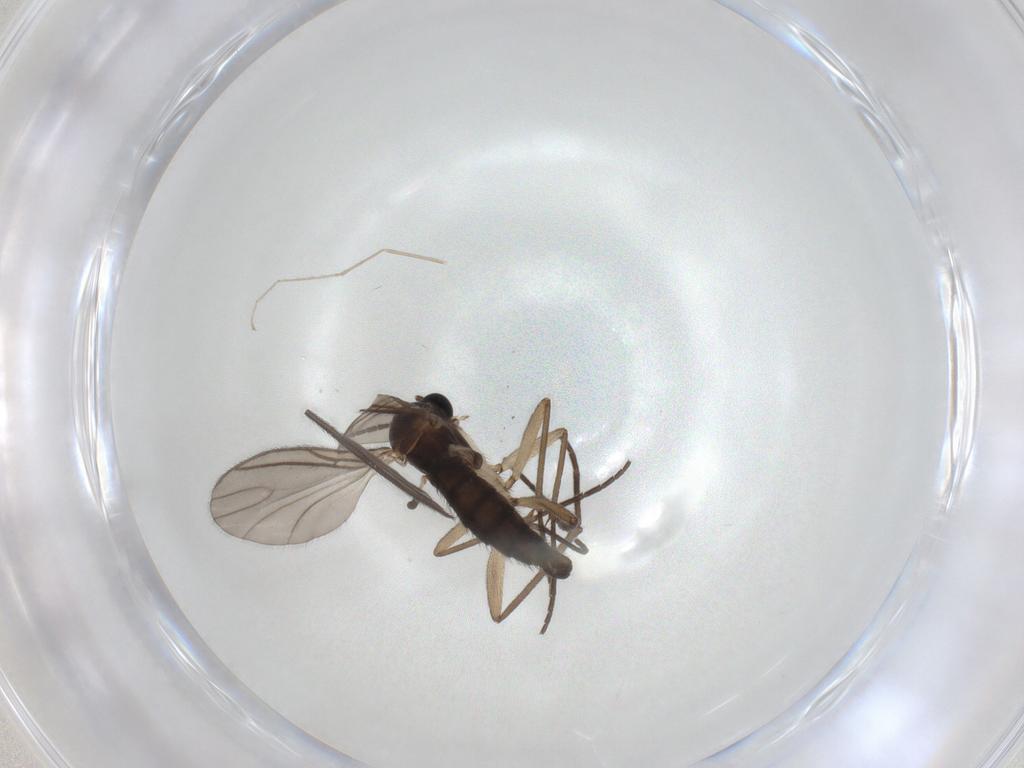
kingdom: Animalia
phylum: Arthropoda
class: Insecta
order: Diptera
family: Sciaridae
